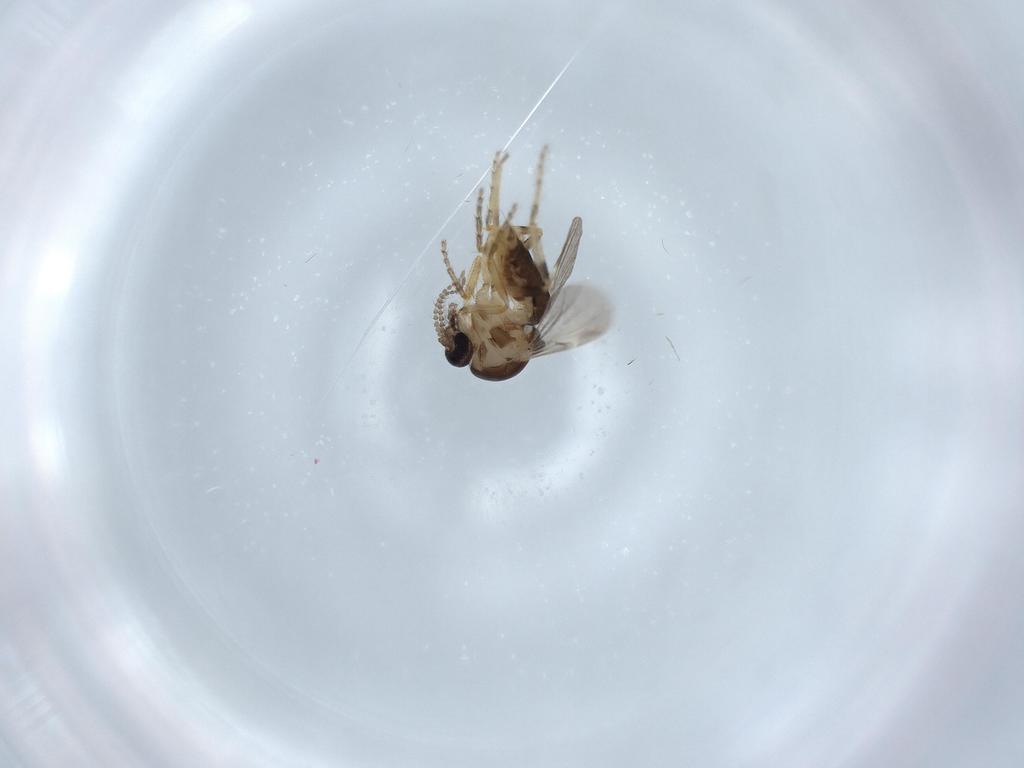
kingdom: Animalia
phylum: Arthropoda
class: Insecta
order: Diptera
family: Ceratopogonidae
